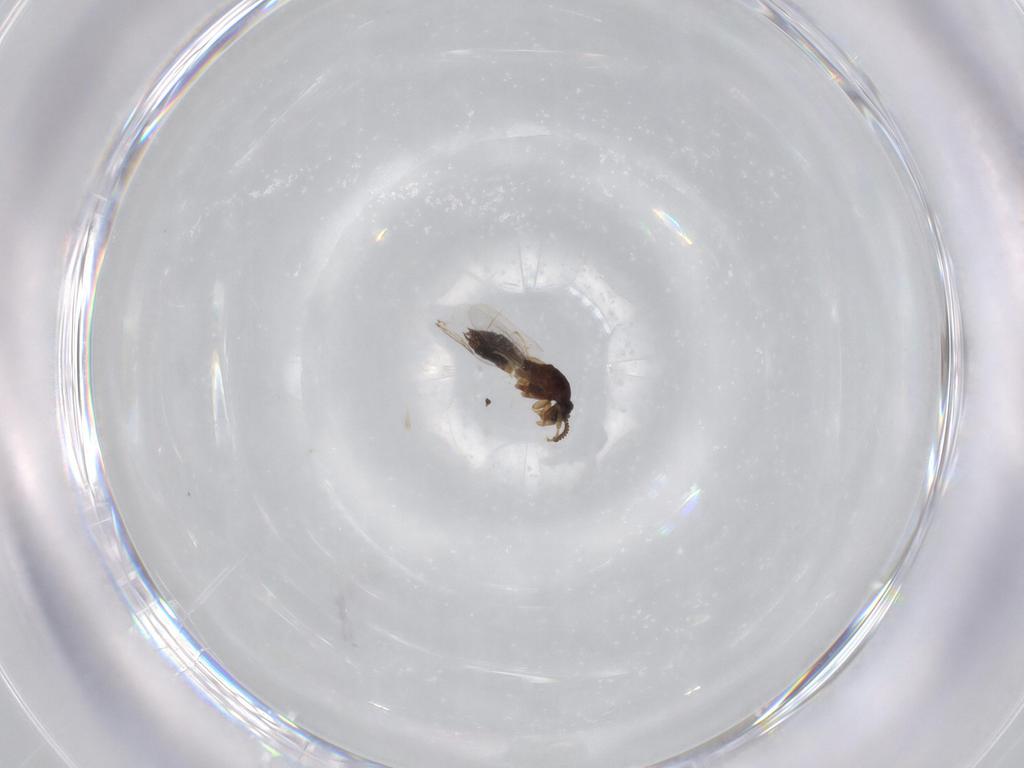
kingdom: Animalia
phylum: Arthropoda
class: Insecta
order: Diptera
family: Scatopsidae
